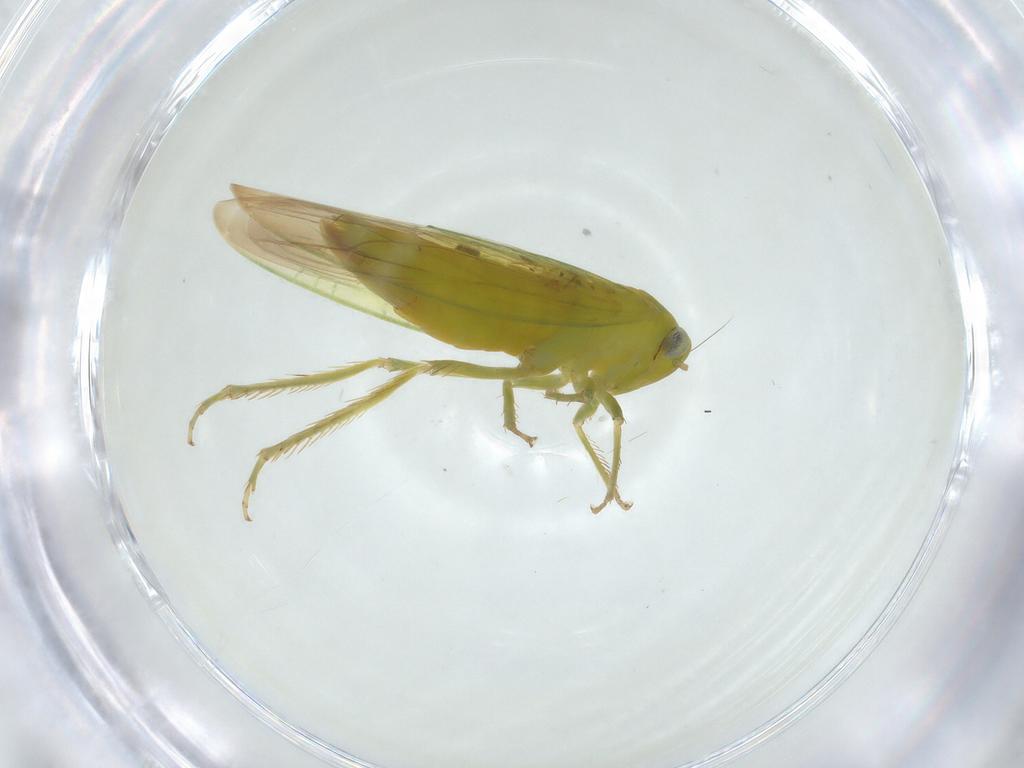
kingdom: Animalia
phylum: Arthropoda
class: Insecta
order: Hemiptera
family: Cicadellidae
